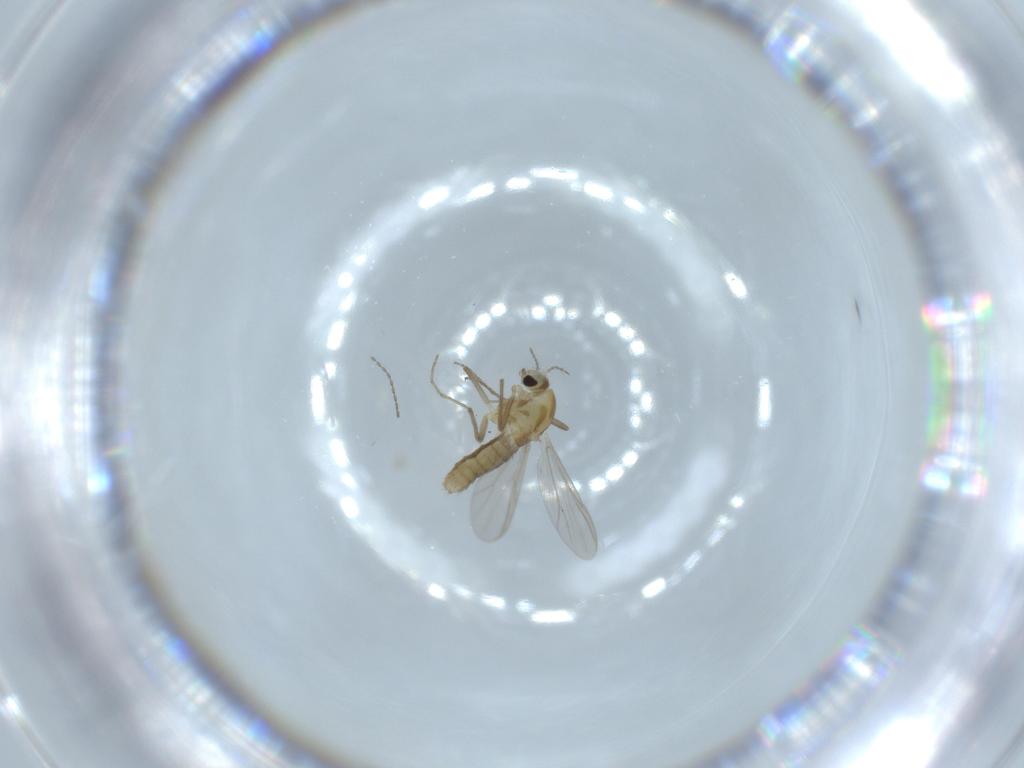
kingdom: Animalia
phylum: Arthropoda
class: Insecta
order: Diptera
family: Chironomidae
